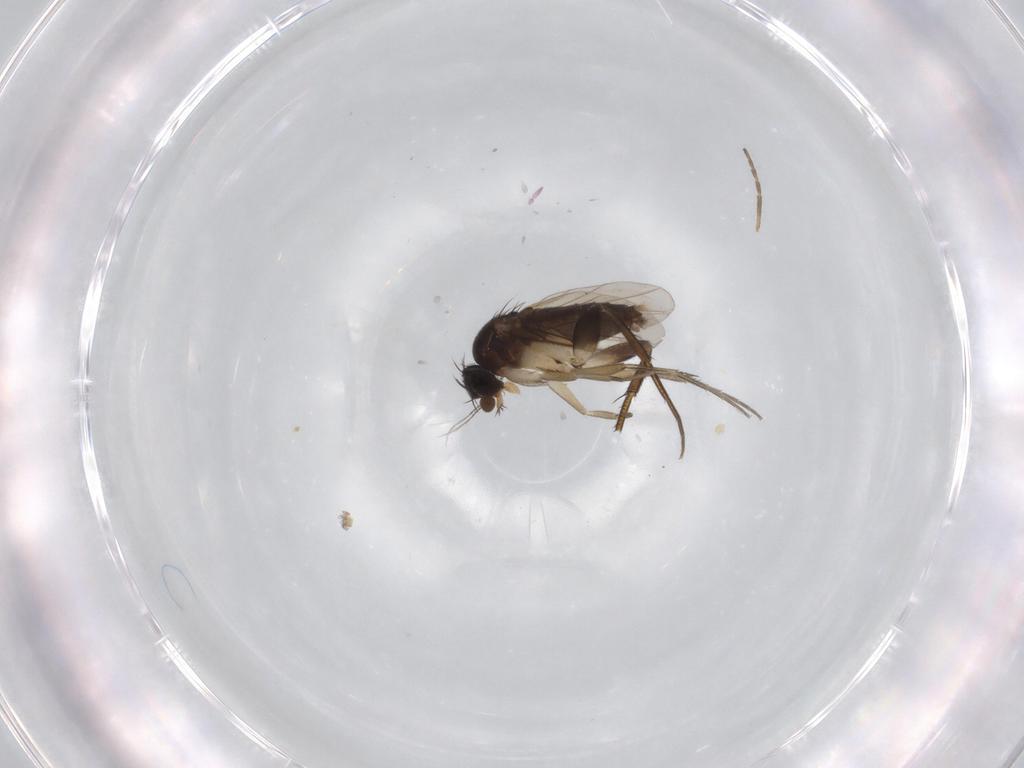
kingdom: Animalia
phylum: Arthropoda
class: Insecta
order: Diptera
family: Phoridae
